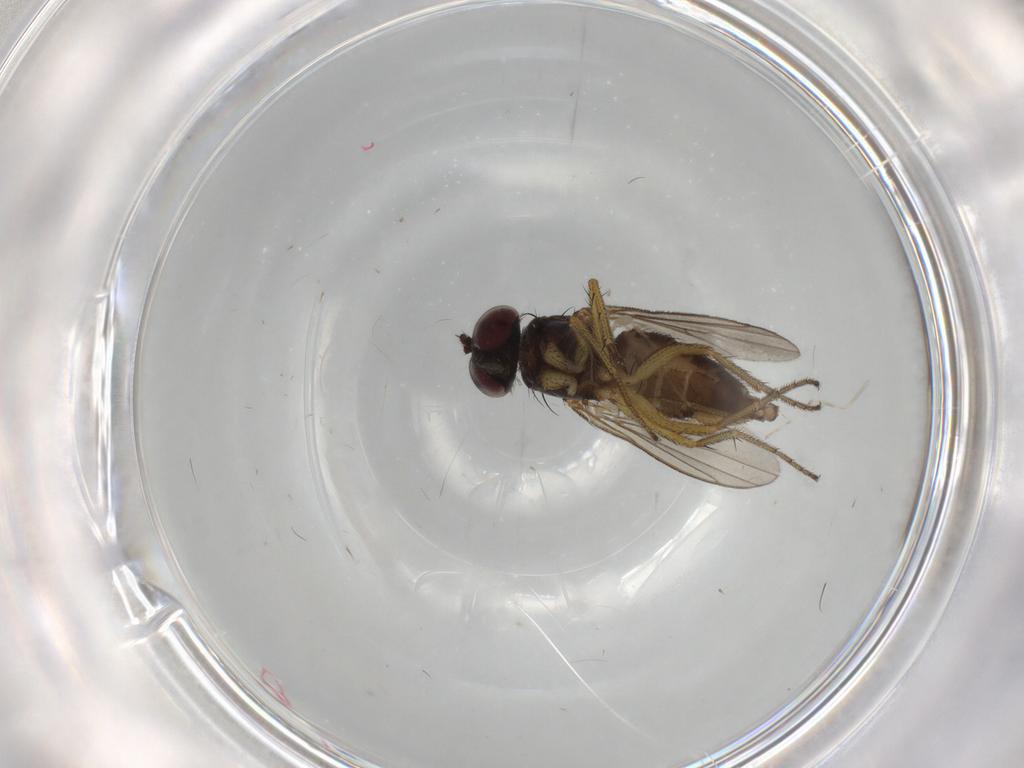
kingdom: Animalia
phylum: Arthropoda
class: Insecta
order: Diptera
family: Dolichopodidae
